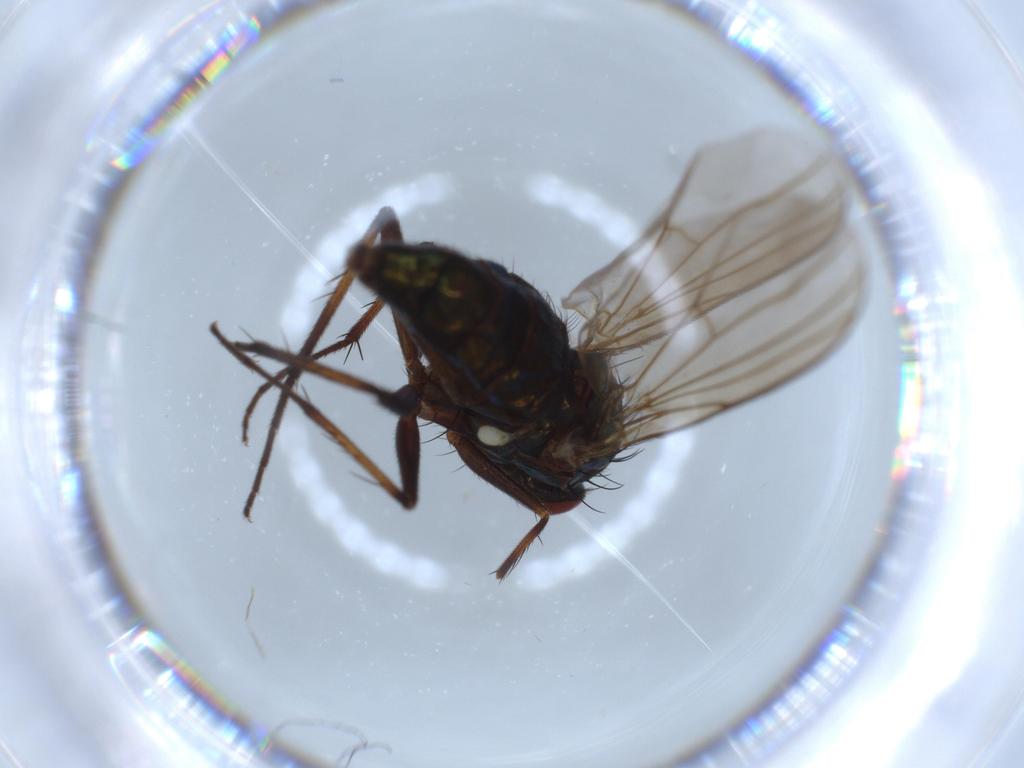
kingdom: Animalia
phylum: Arthropoda
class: Insecta
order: Diptera
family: Dolichopodidae
